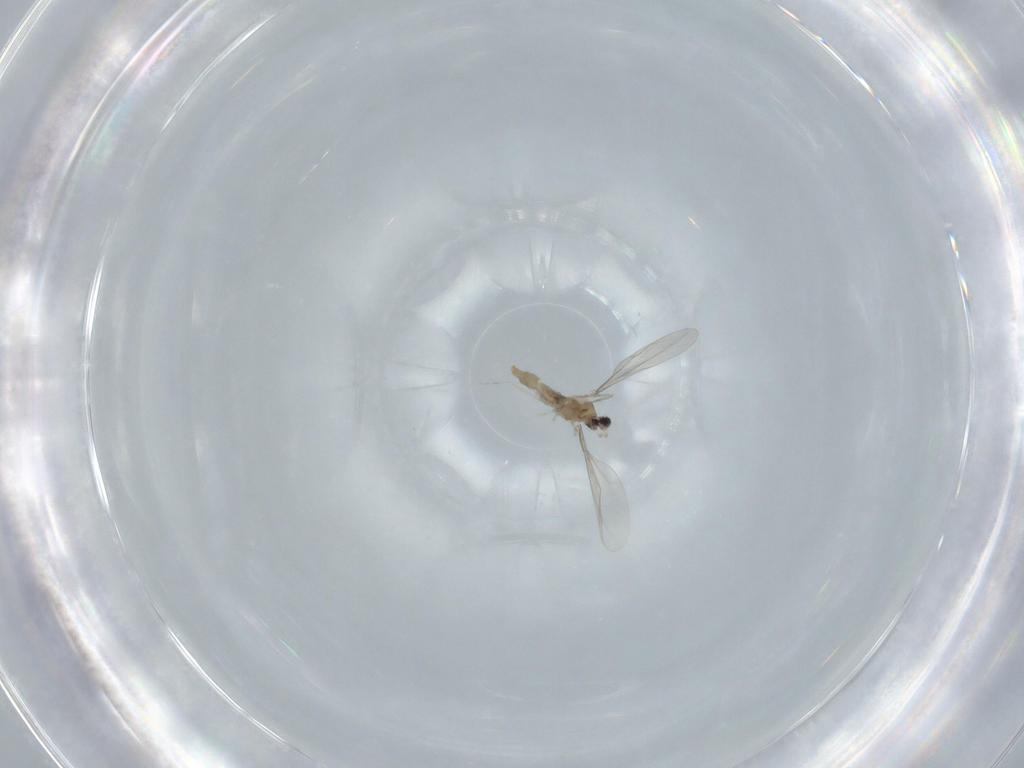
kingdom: Animalia
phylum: Arthropoda
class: Insecta
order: Diptera
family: Cecidomyiidae
